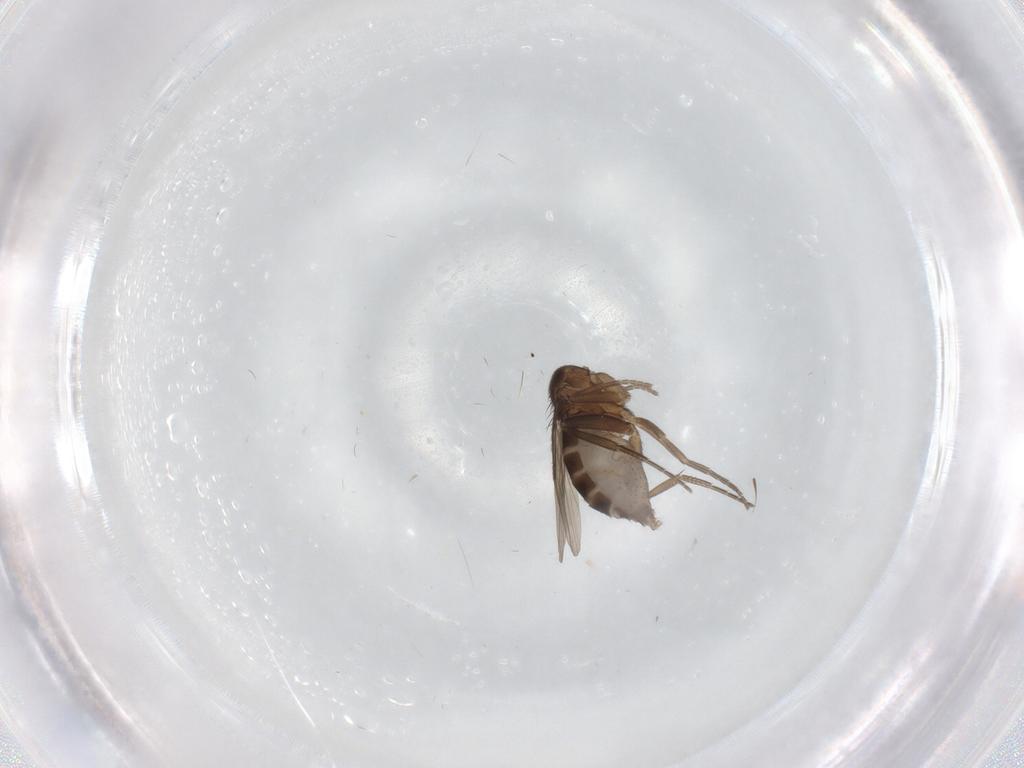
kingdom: Animalia
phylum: Arthropoda
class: Insecta
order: Diptera
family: Phoridae
